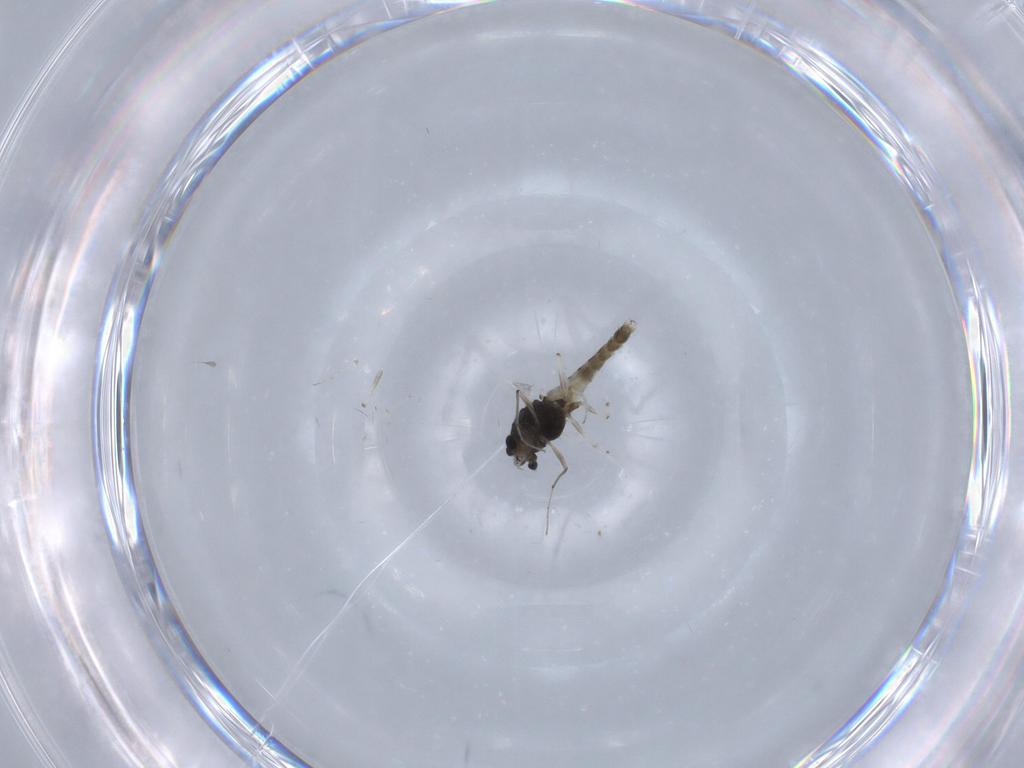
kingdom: Animalia
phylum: Arthropoda
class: Insecta
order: Diptera
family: Chironomidae
